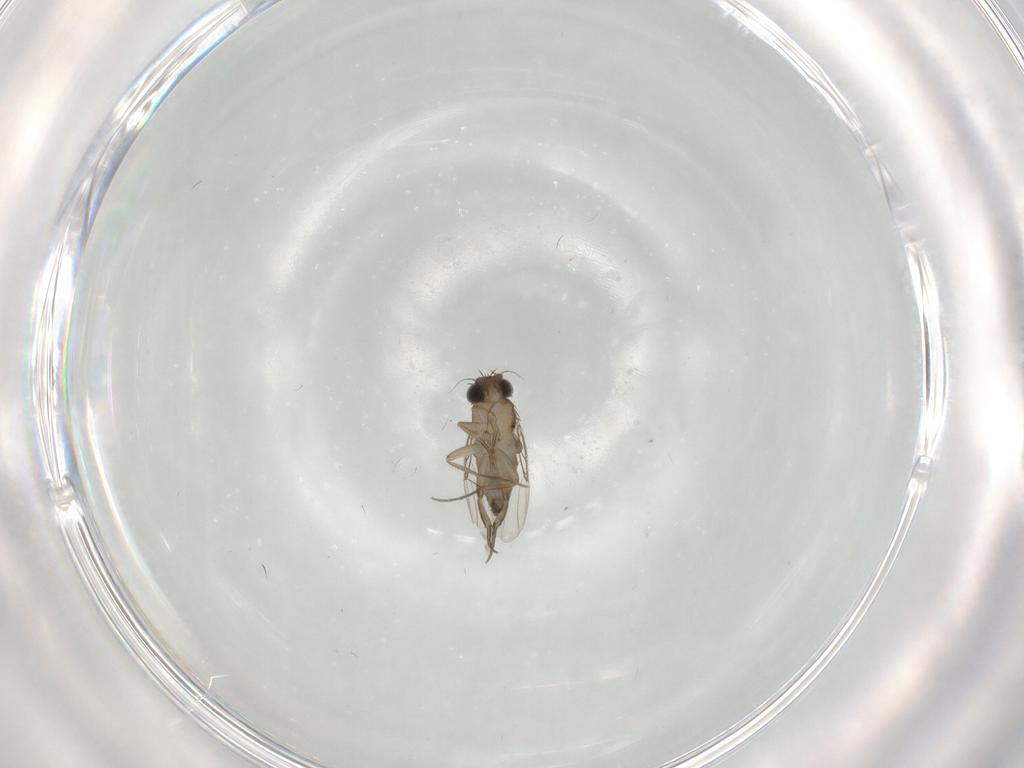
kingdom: Animalia
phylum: Arthropoda
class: Insecta
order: Diptera
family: Phoridae
